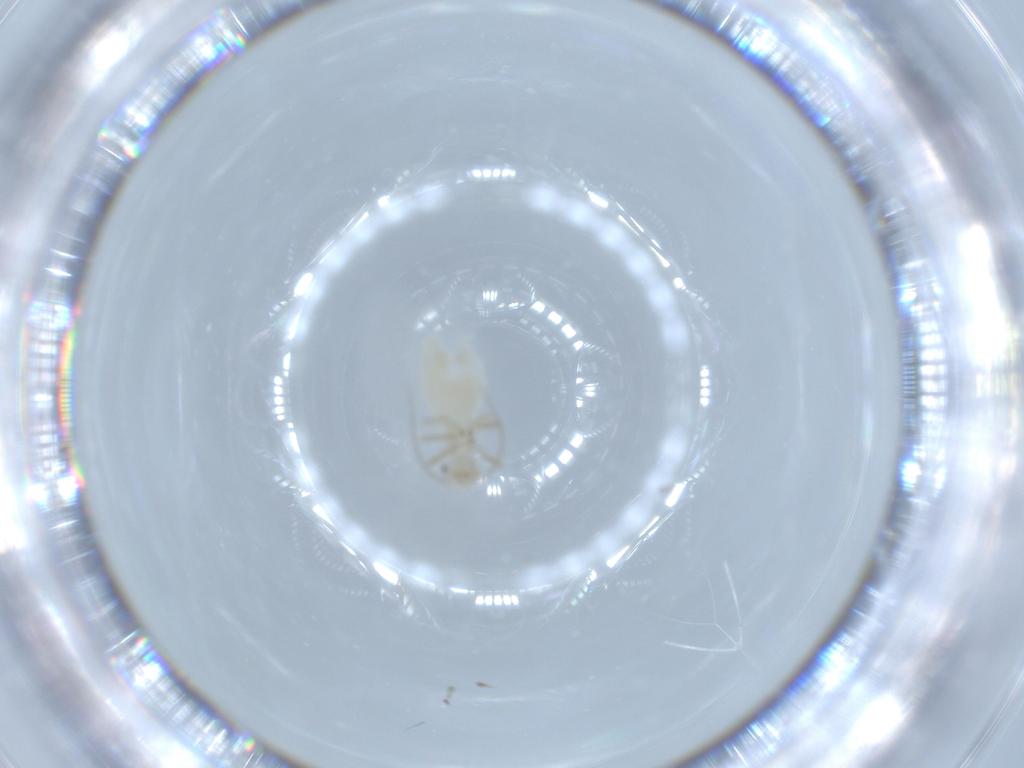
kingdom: Animalia
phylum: Arthropoda
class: Insecta
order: Psocodea
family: Caeciliusidae
